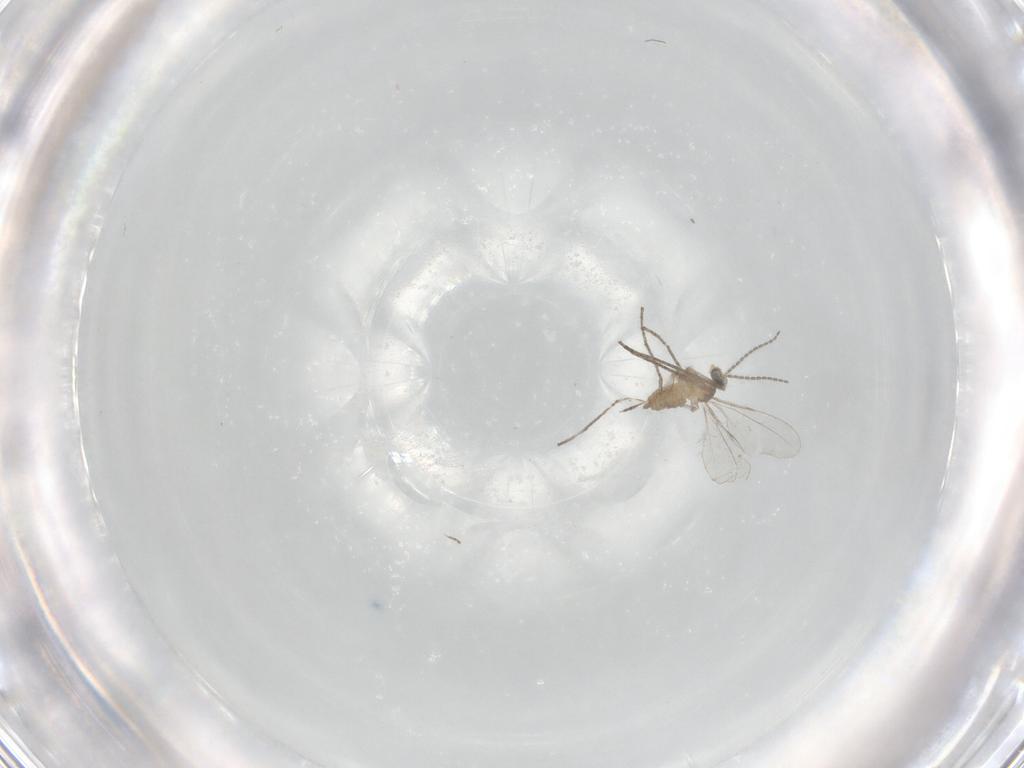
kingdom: Animalia
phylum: Arthropoda
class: Insecta
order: Diptera
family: Cecidomyiidae
